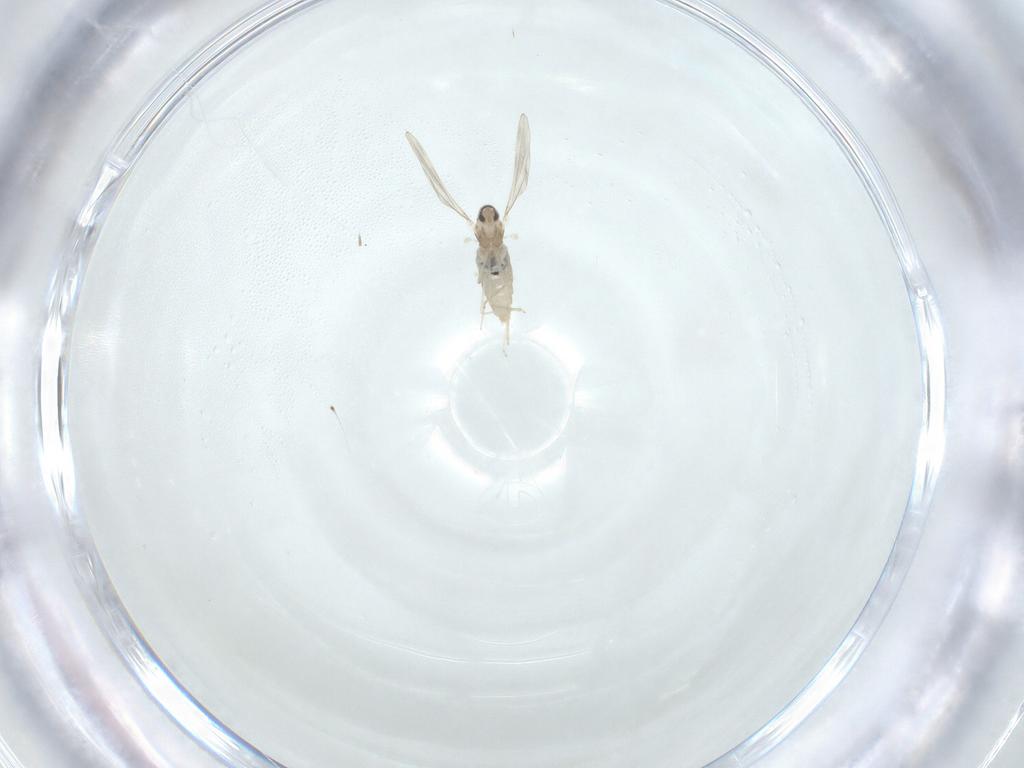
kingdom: Animalia
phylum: Arthropoda
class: Insecta
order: Diptera
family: Cecidomyiidae
